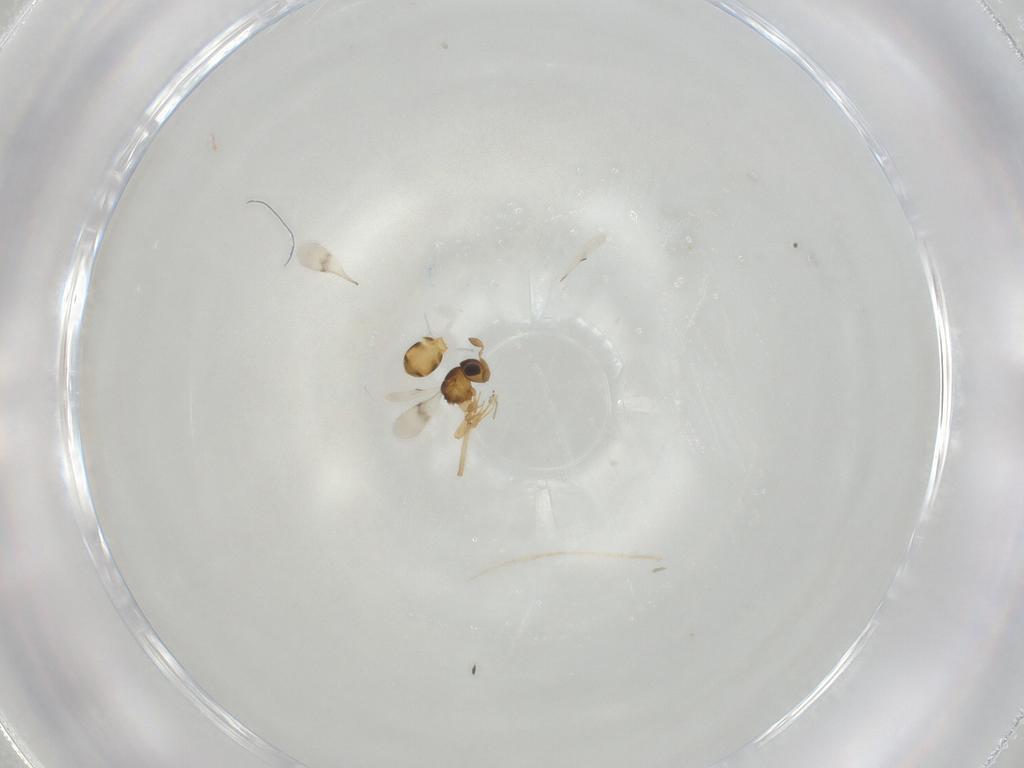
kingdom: Animalia
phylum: Arthropoda
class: Insecta
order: Hymenoptera
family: Scelionidae
